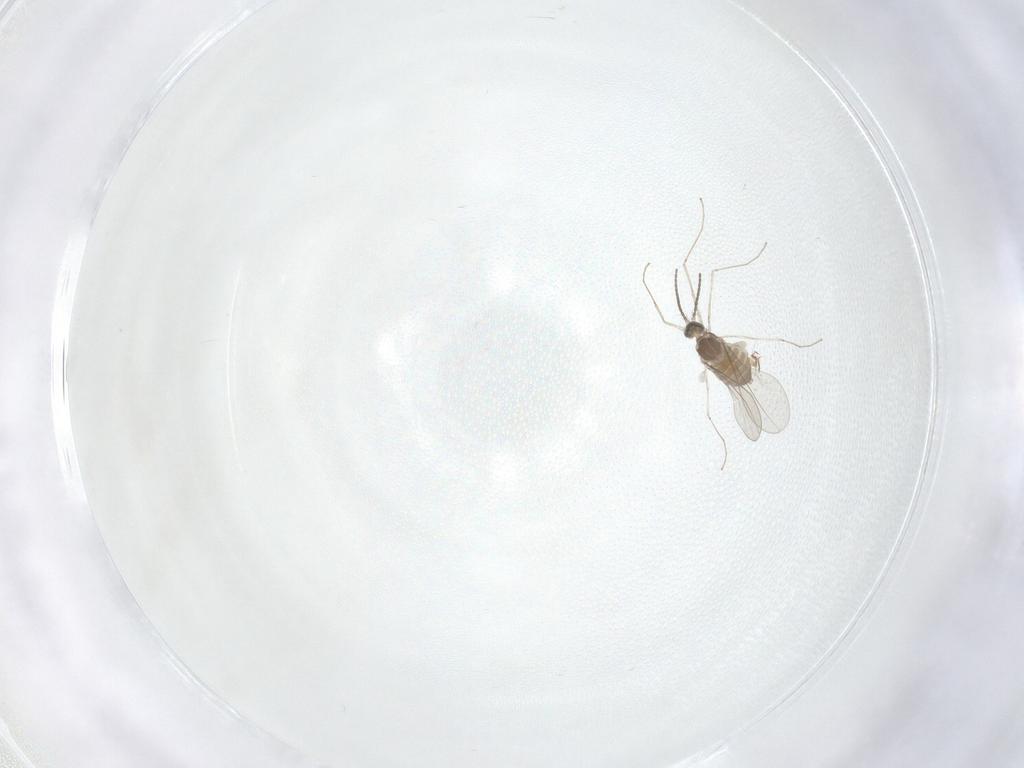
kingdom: Animalia
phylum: Arthropoda
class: Insecta
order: Diptera
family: Cecidomyiidae
